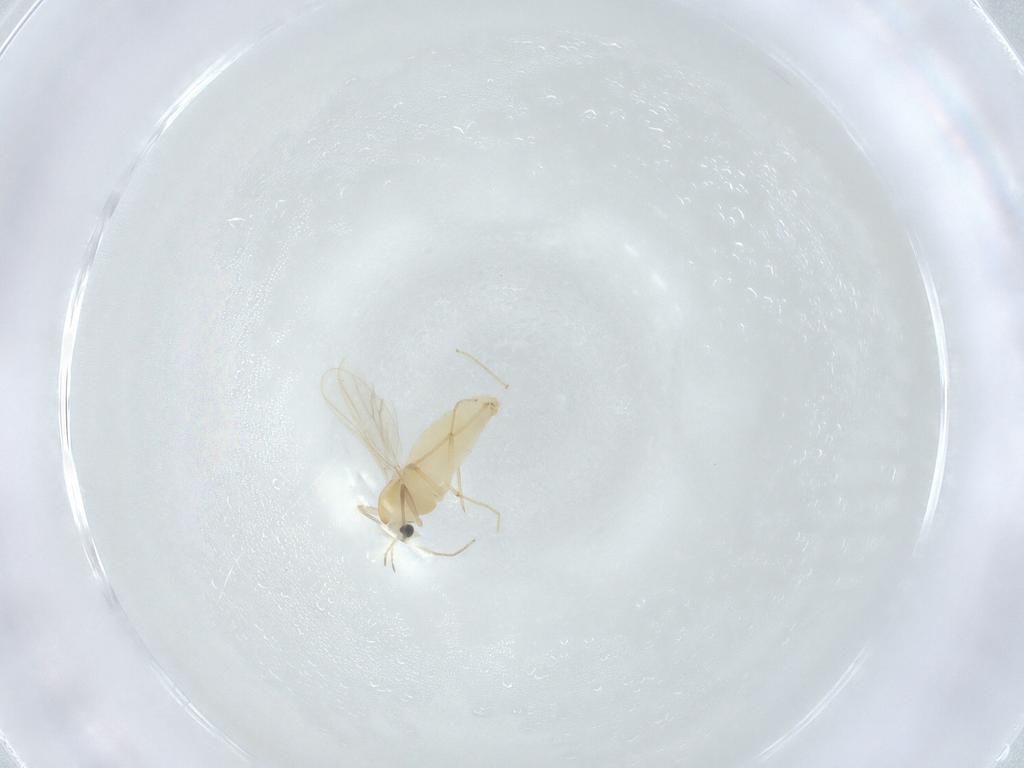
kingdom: Animalia
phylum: Arthropoda
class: Insecta
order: Diptera
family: Chironomidae
